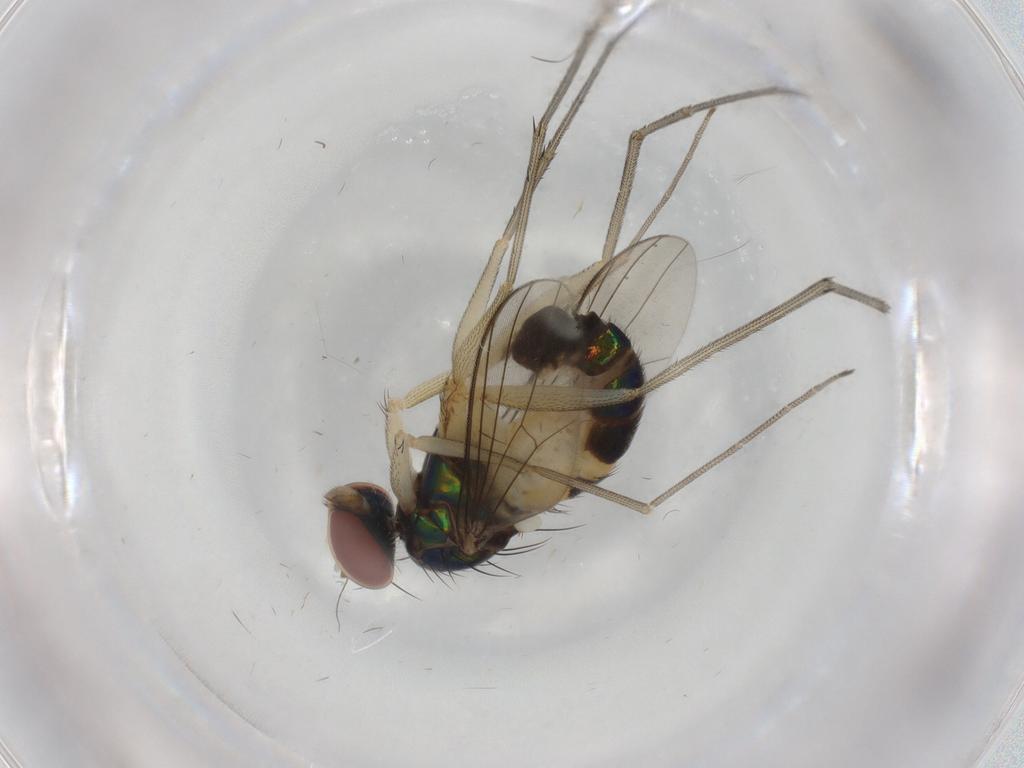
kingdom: Animalia
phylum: Arthropoda
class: Insecta
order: Diptera
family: Dolichopodidae
